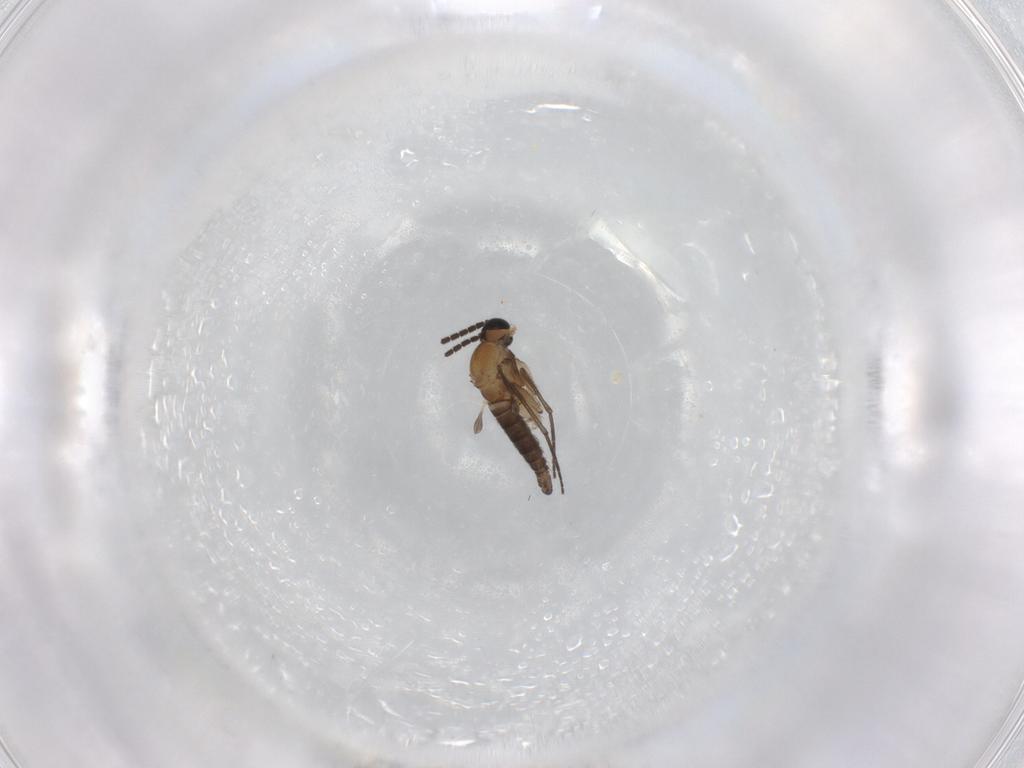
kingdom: Animalia
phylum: Arthropoda
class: Insecta
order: Diptera
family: Sciaridae
